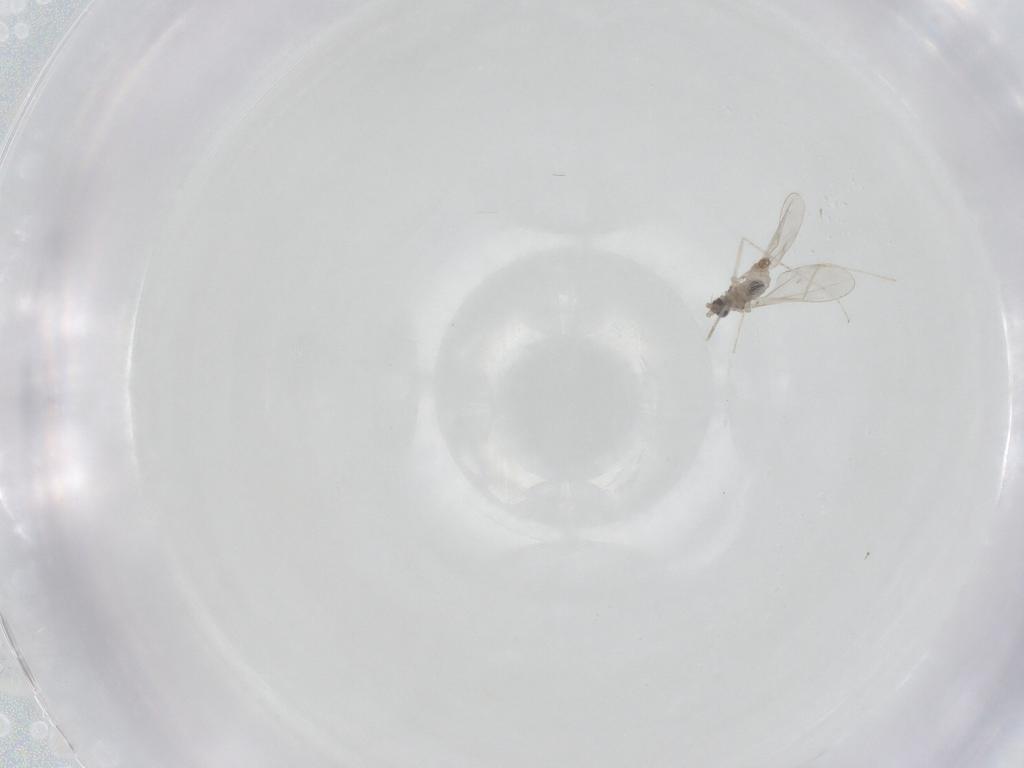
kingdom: Animalia
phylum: Arthropoda
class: Insecta
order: Diptera
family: Cecidomyiidae
